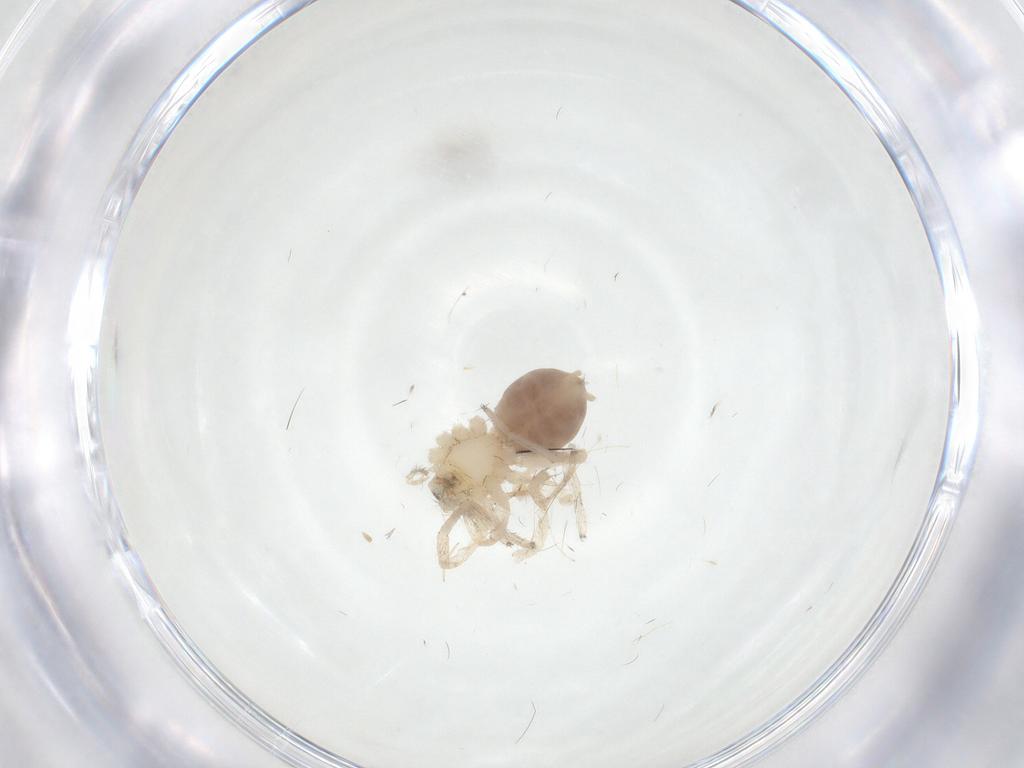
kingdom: Animalia
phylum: Arthropoda
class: Arachnida
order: Araneae
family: Anyphaenidae
